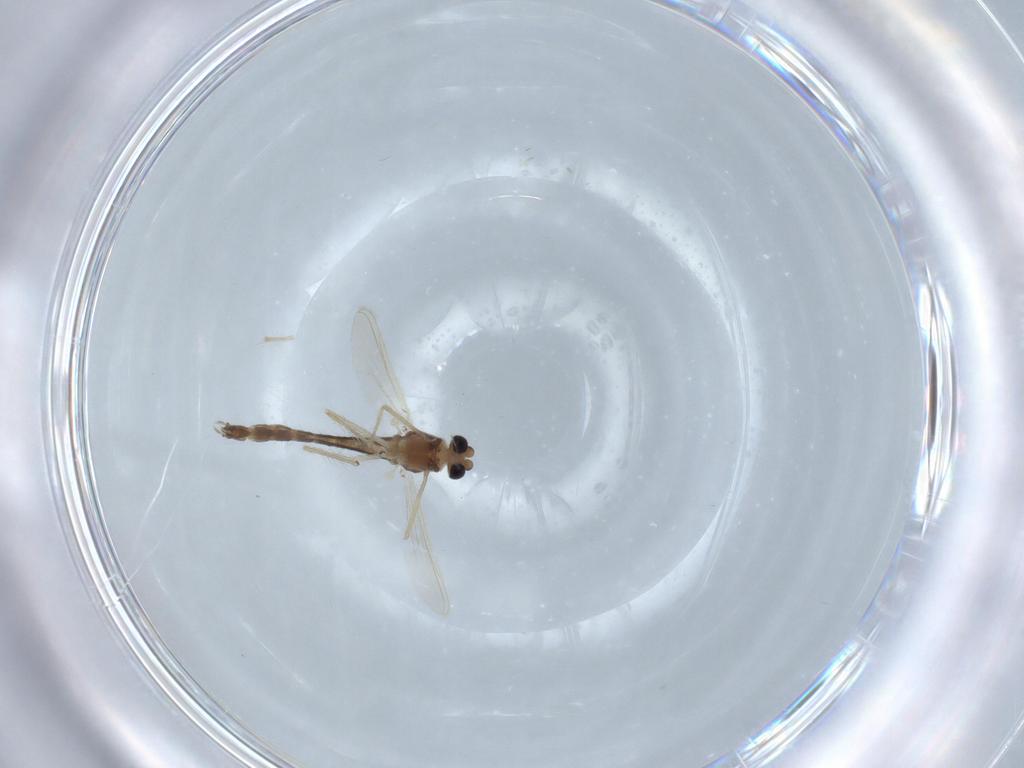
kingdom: Animalia
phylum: Arthropoda
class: Insecta
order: Diptera
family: Chironomidae
